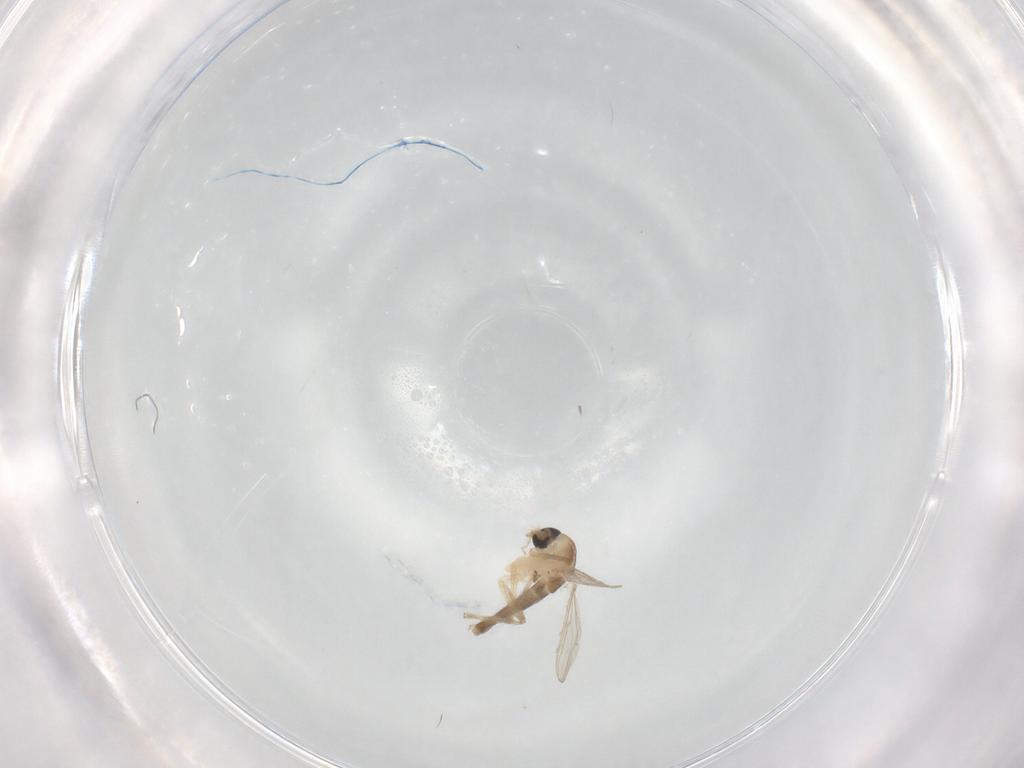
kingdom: Animalia
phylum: Arthropoda
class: Insecta
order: Diptera
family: Chironomidae
